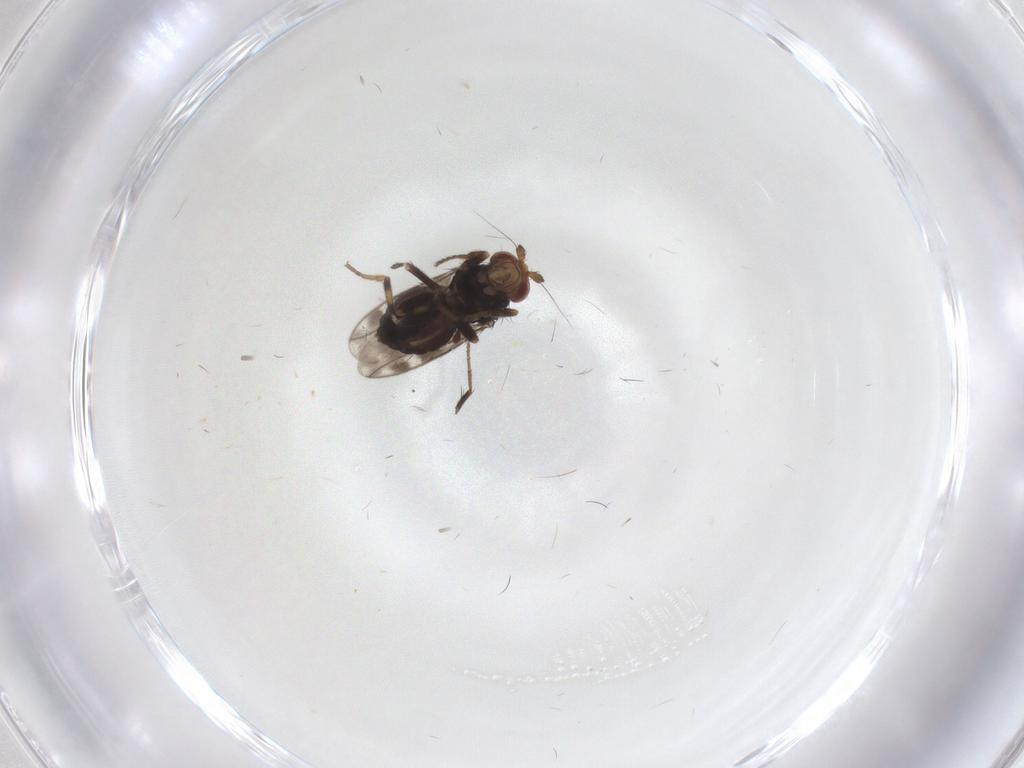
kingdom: Animalia
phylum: Arthropoda
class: Insecta
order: Diptera
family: Sphaeroceridae
